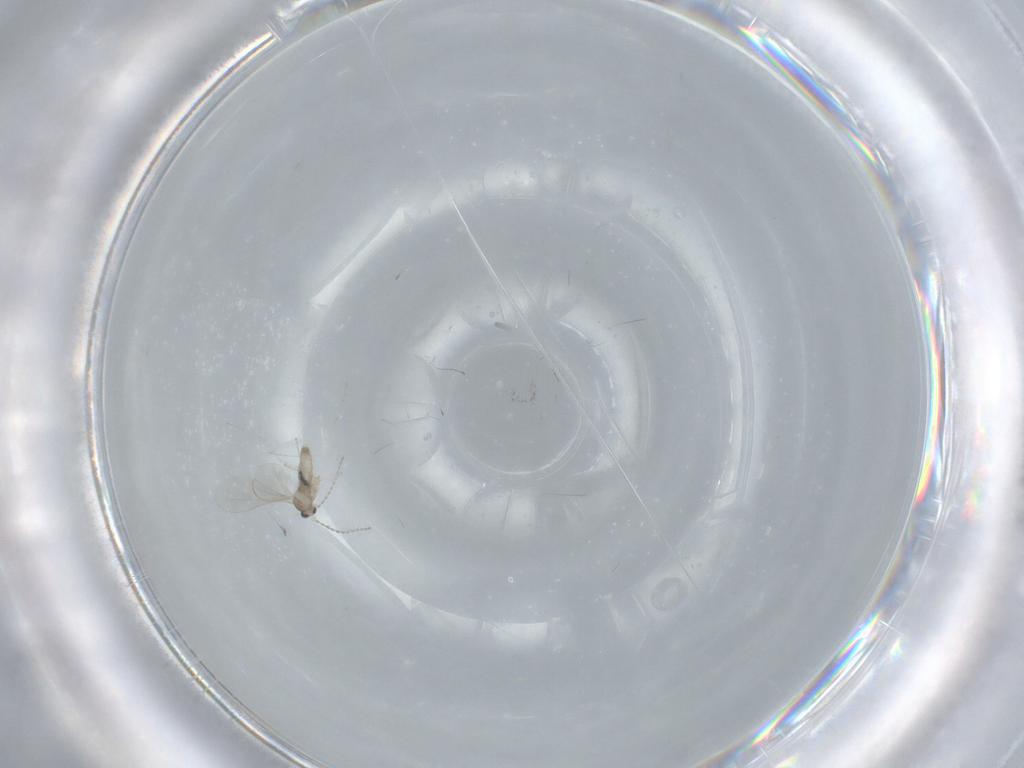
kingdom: Animalia
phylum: Arthropoda
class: Insecta
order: Diptera
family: Cecidomyiidae
